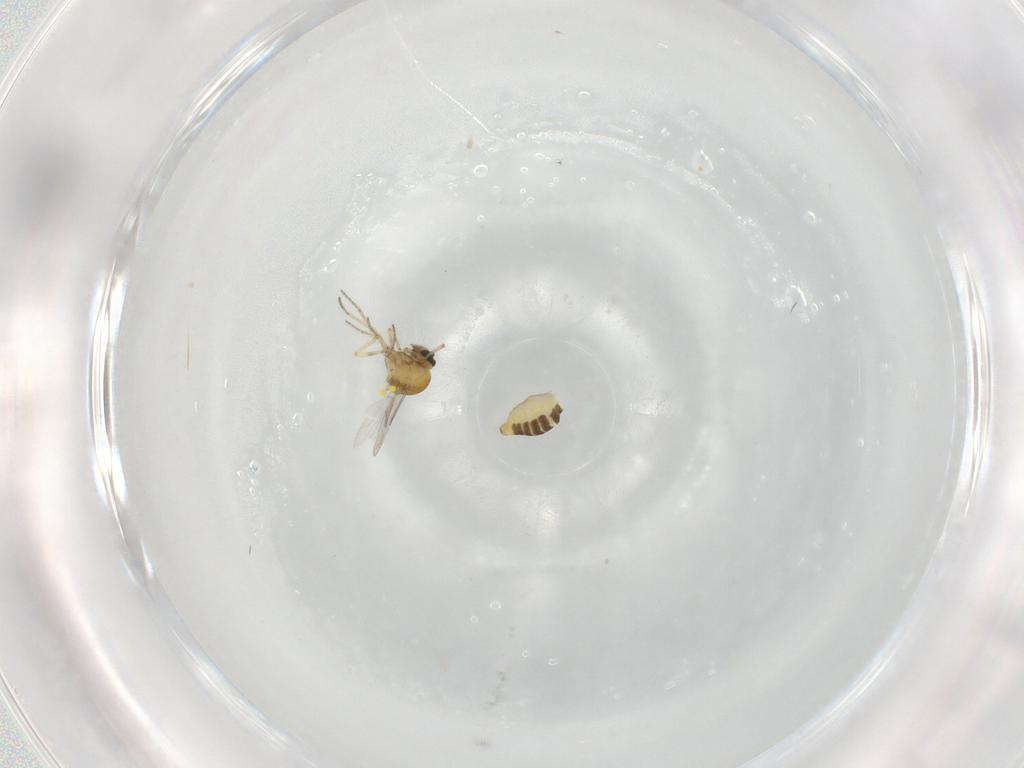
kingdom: Animalia
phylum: Arthropoda
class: Insecta
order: Diptera
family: Ceratopogonidae
